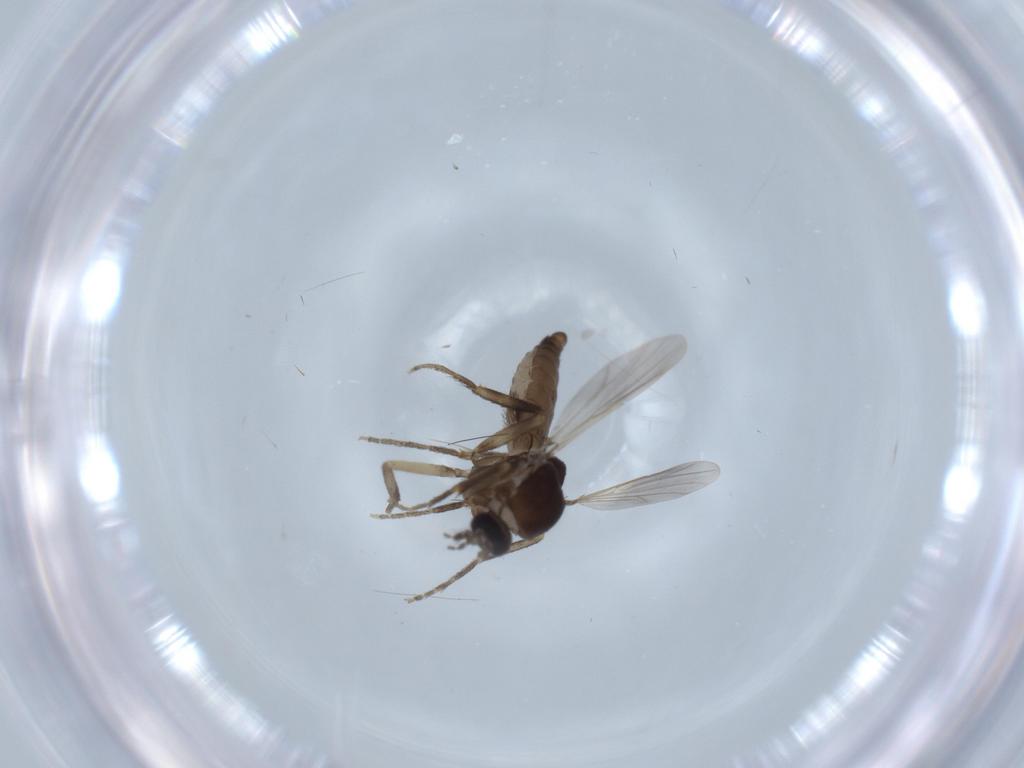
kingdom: Animalia
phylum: Arthropoda
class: Insecta
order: Diptera
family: Ceratopogonidae
